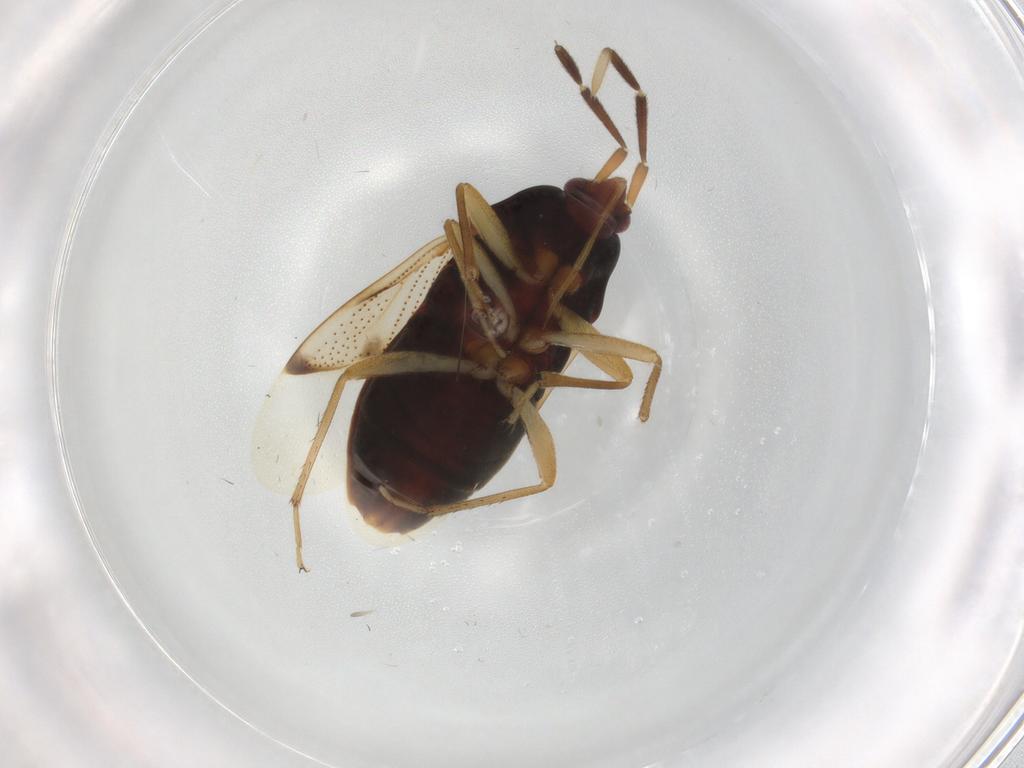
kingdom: Animalia
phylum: Arthropoda
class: Insecta
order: Hemiptera
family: Rhyparochromidae
